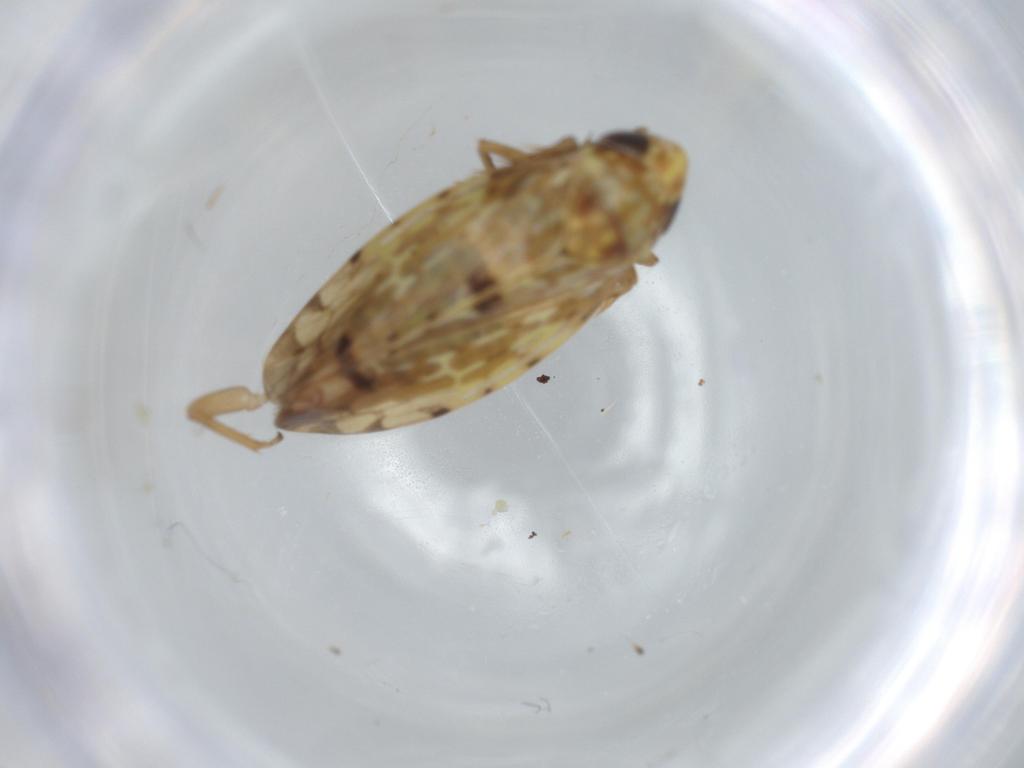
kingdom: Animalia
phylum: Arthropoda
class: Insecta
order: Hemiptera
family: Cicadellidae
